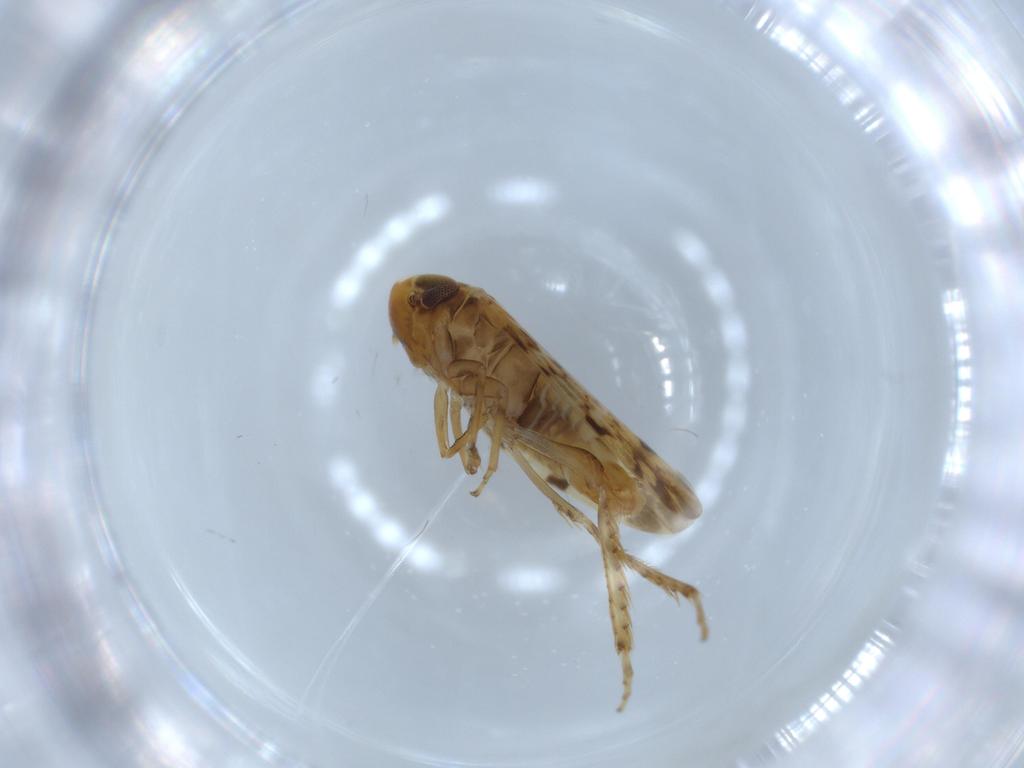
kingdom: Animalia
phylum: Arthropoda
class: Insecta
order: Hemiptera
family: Cicadellidae
